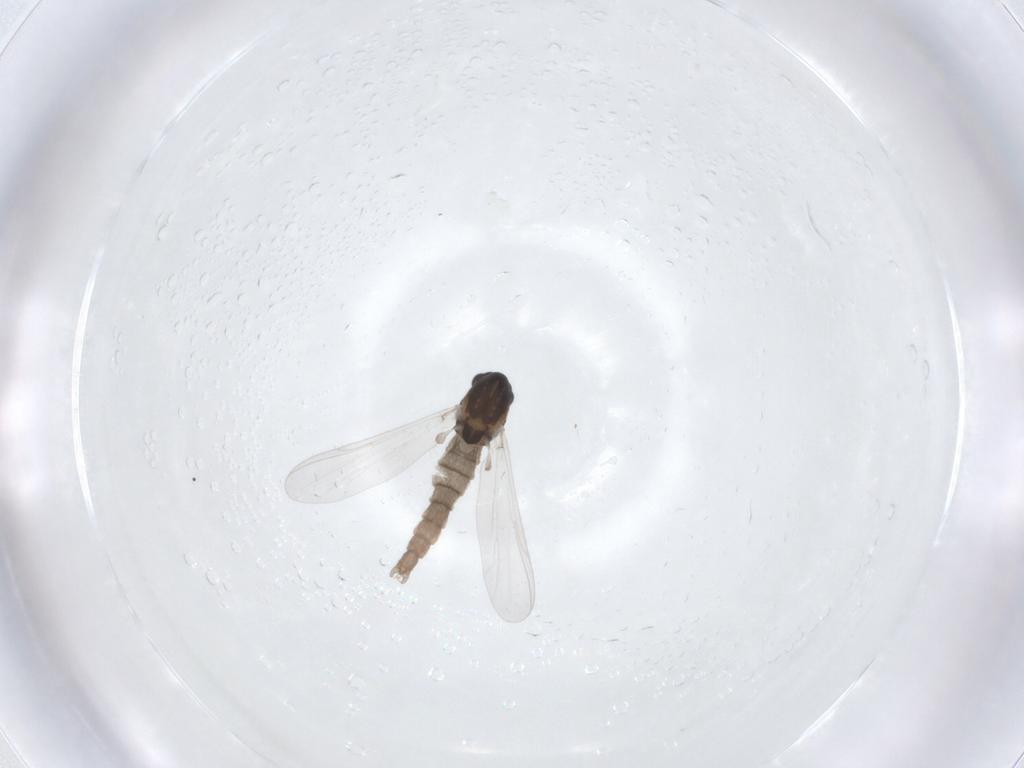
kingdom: Animalia
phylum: Arthropoda
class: Insecta
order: Diptera
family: Chironomidae
